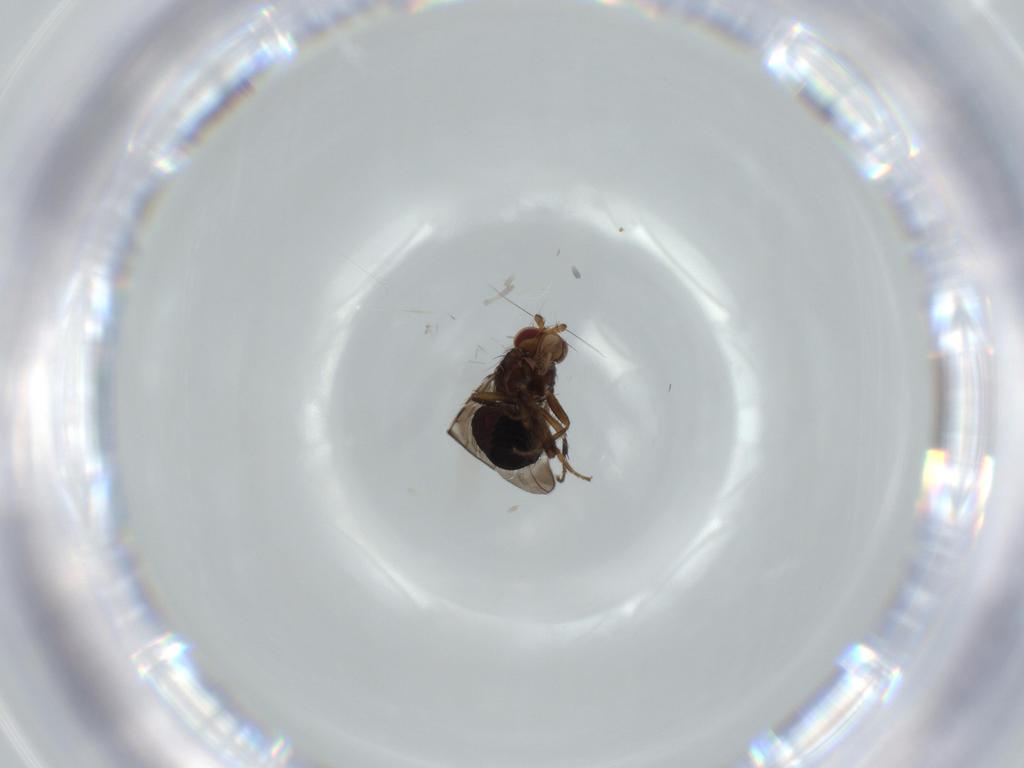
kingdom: Animalia
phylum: Arthropoda
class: Insecta
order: Diptera
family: Sphaeroceridae
